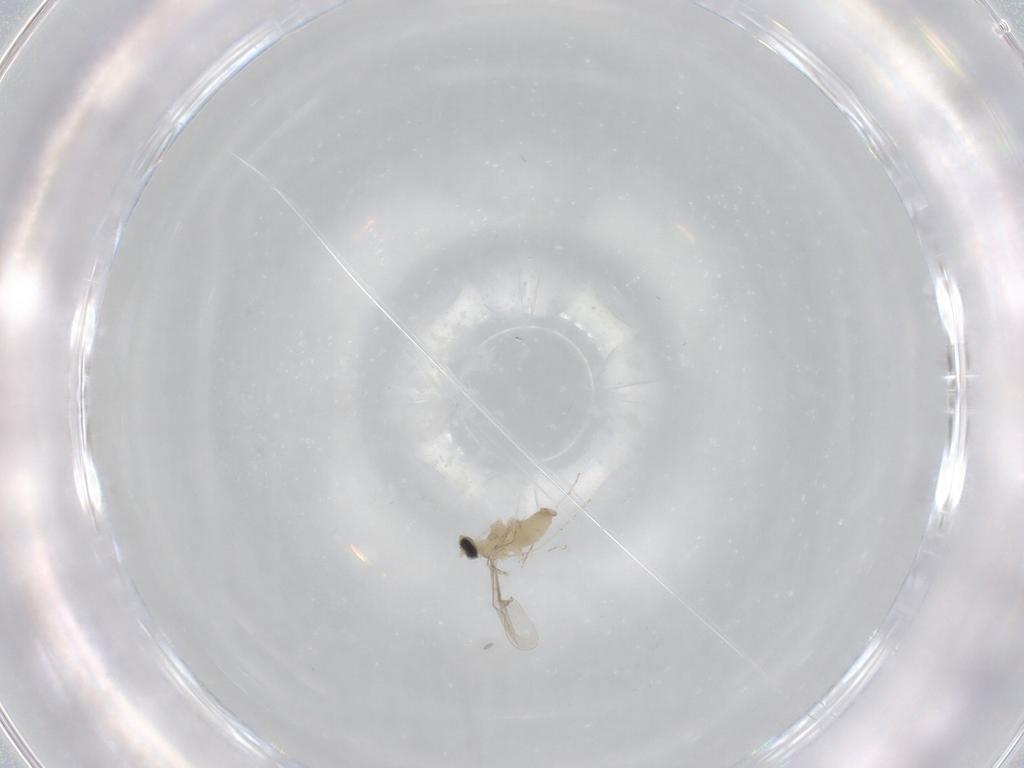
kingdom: Animalia
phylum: Arthropoda
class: Insecta
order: Diptera
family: Cecidomyiidae
